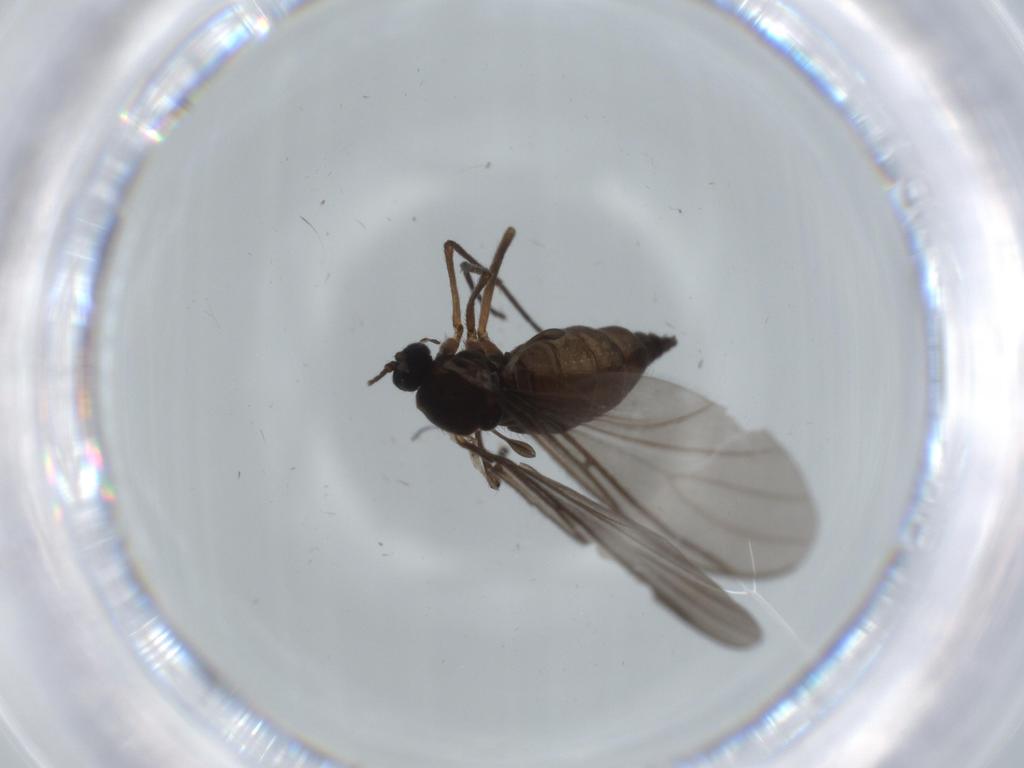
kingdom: Animalia
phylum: Arthropoda
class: Insecta
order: Diptera
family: Sciaridae
